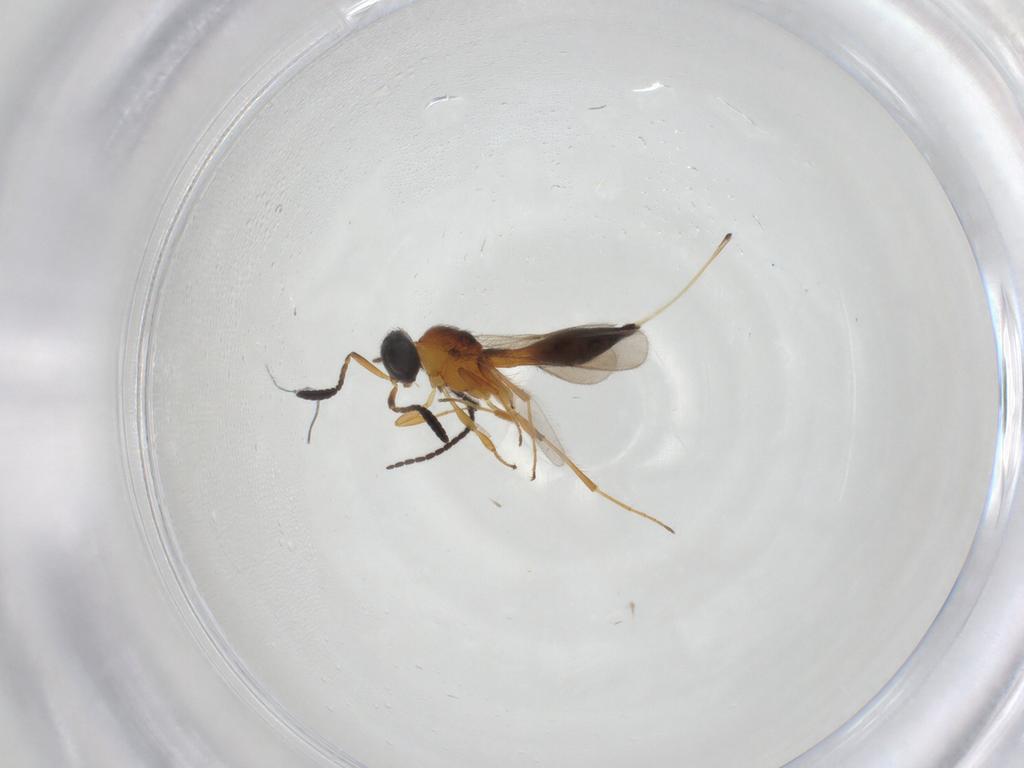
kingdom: Animalia
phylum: Arthropoda
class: Insecta
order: Hymenoptera
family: Scelionidae
